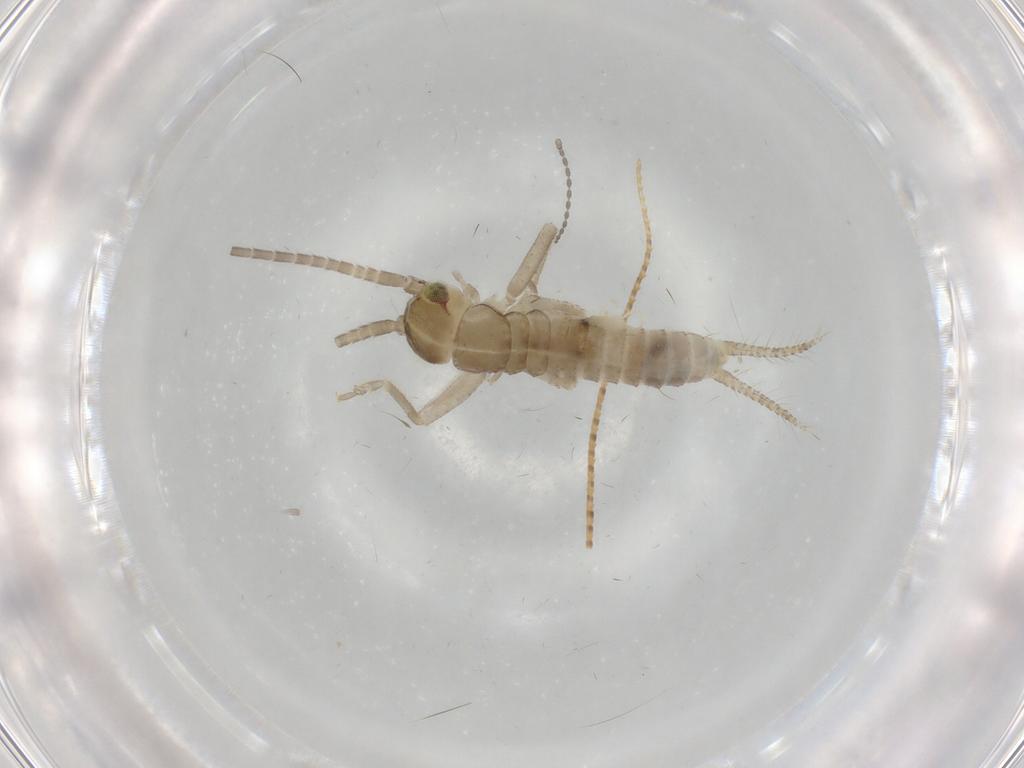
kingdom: Animalia
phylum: Arthropoda
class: Insecta
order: Orthoptera
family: Gryllidae
